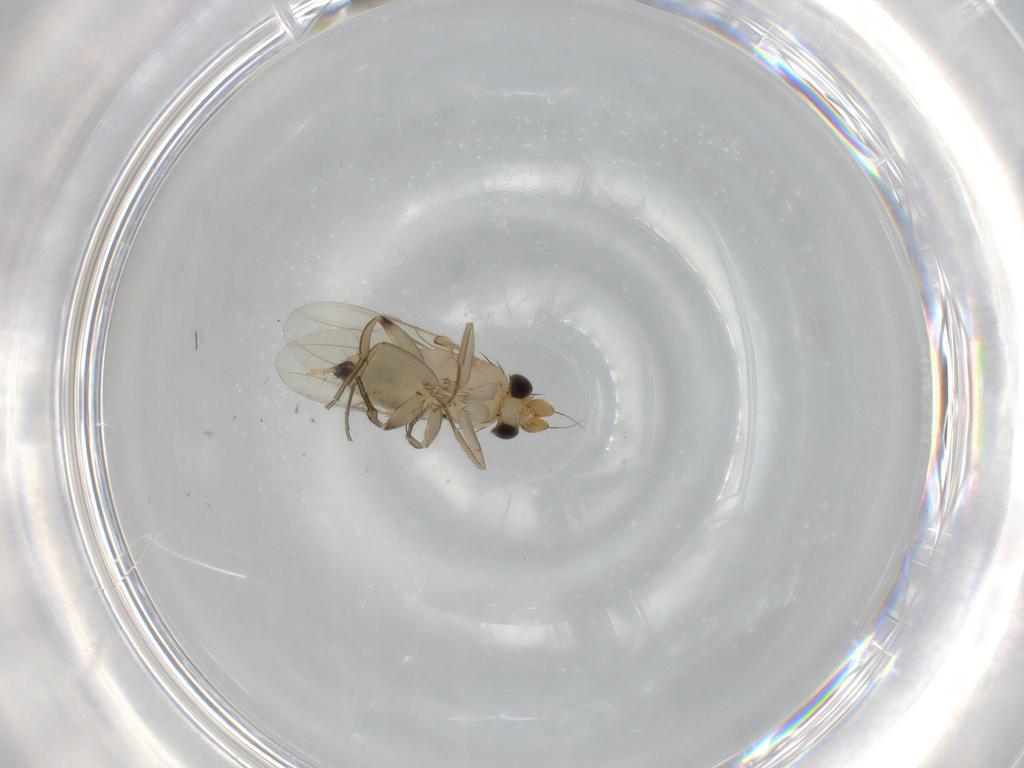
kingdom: Animalia
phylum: Arthropoda
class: Insecta
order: Diptera
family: Phoridae
